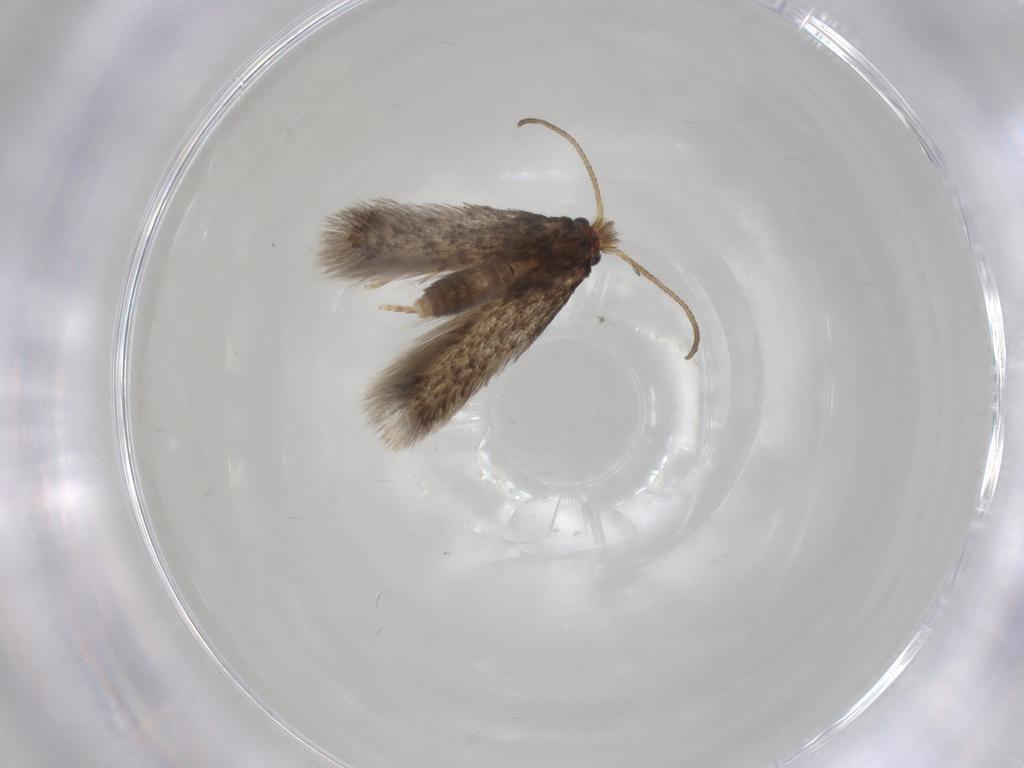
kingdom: Animalia
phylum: Arthropoda
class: Insecta
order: Lepidoptera
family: Nepticulidae
